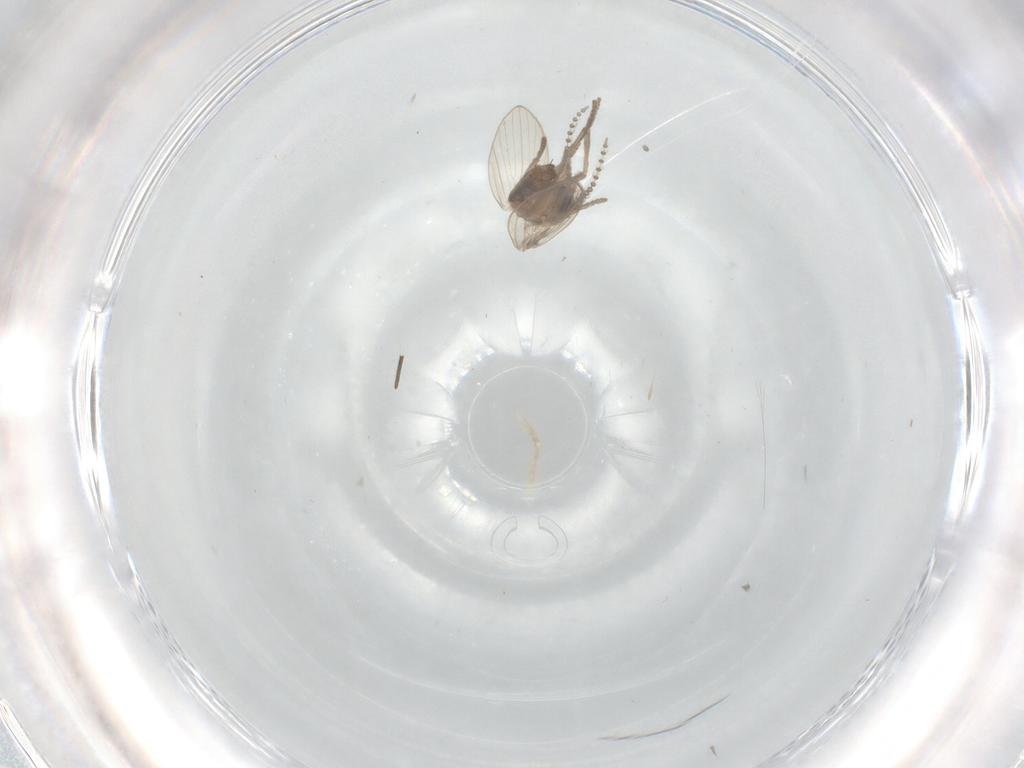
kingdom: Animalia
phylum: Arthropoda
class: Insecta
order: Diptera
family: Psychodidae
